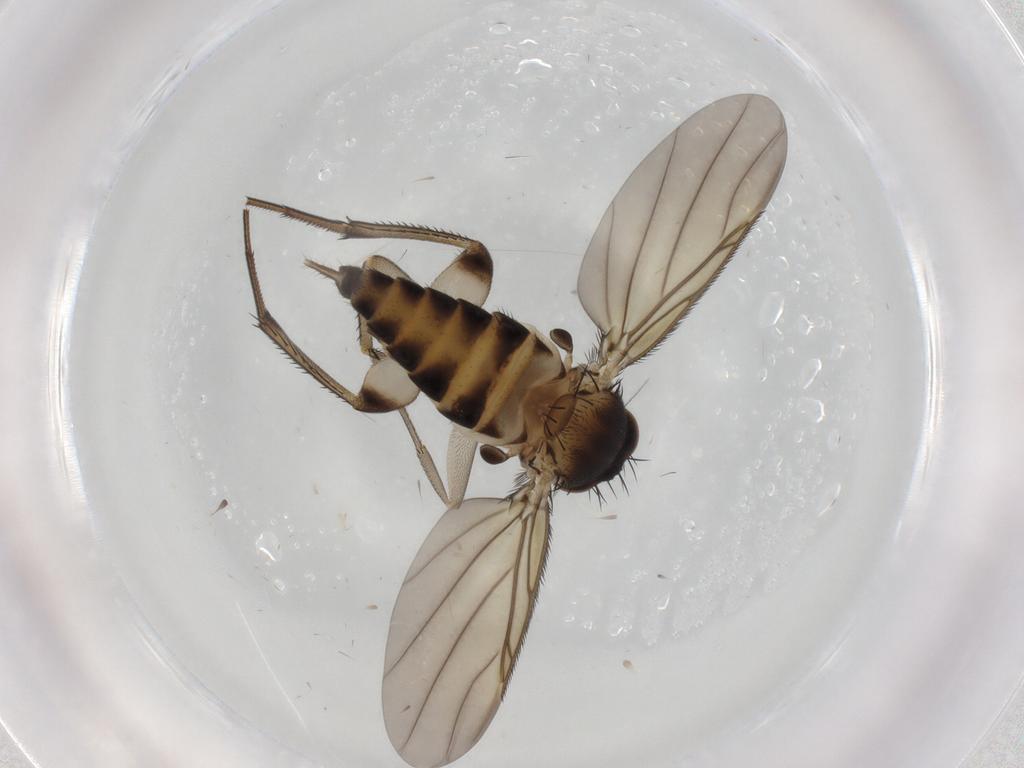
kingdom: Animalia
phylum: Arthropoda
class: Insecta
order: Diptera
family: Phoridae
